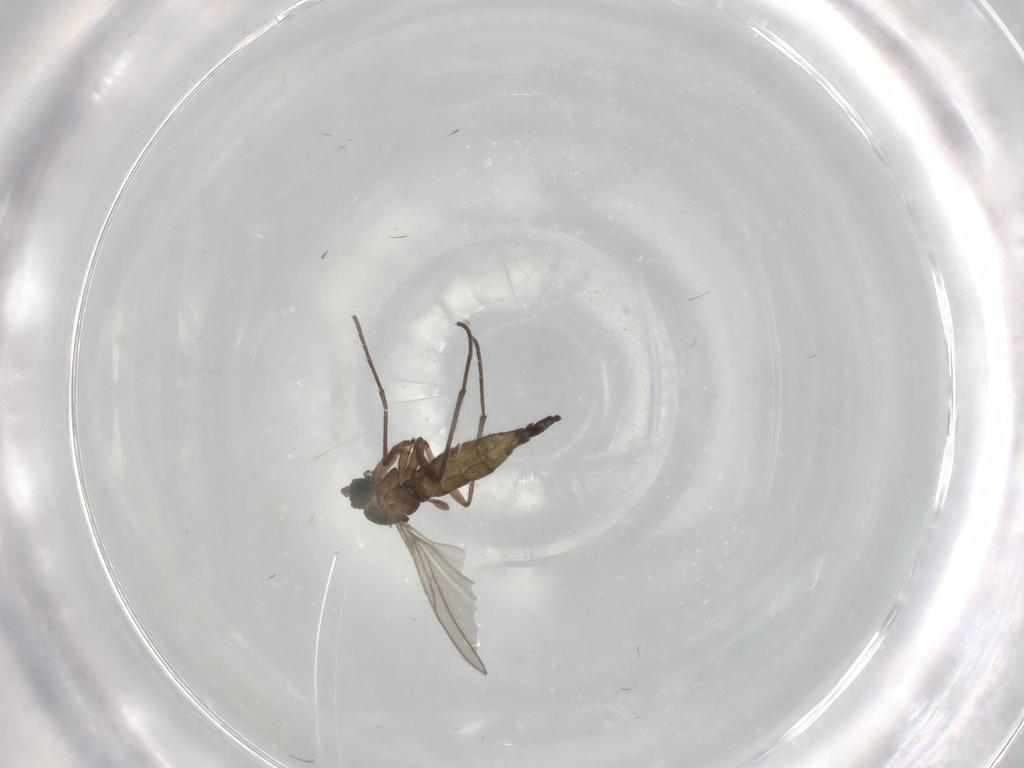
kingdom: Animalia
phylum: Arthropoda
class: Insecta
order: Diptera
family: Sciaridae
